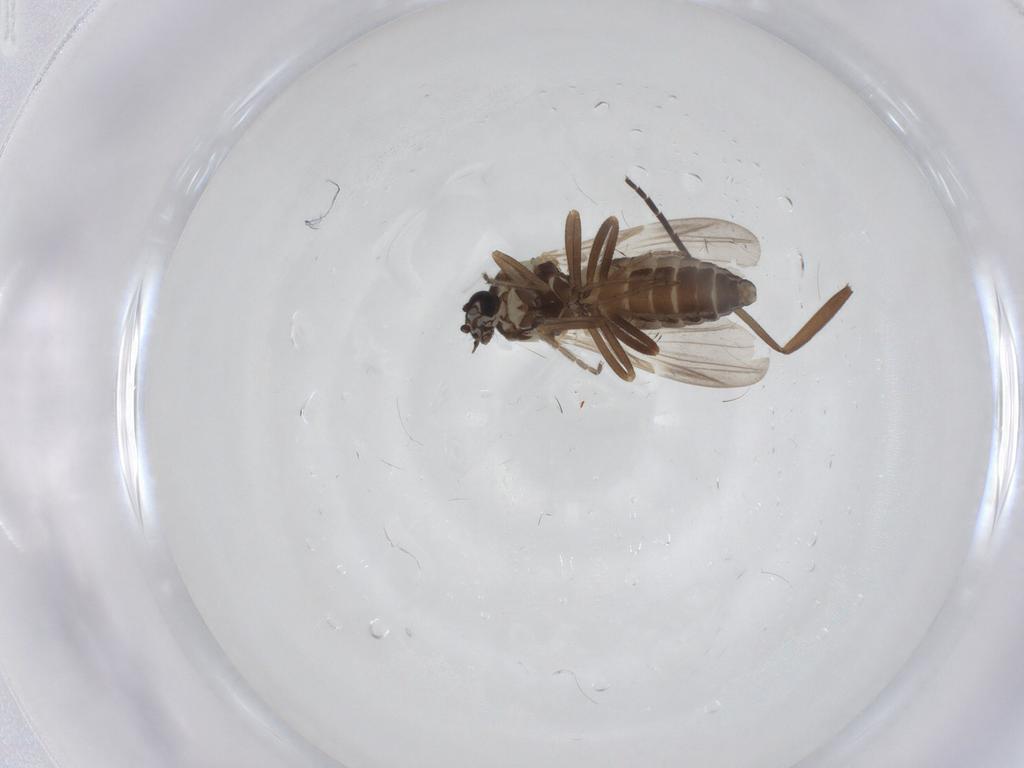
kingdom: Animalia
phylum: Arthropoda
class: Insecta
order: Diptera
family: Ceratopogonidae
